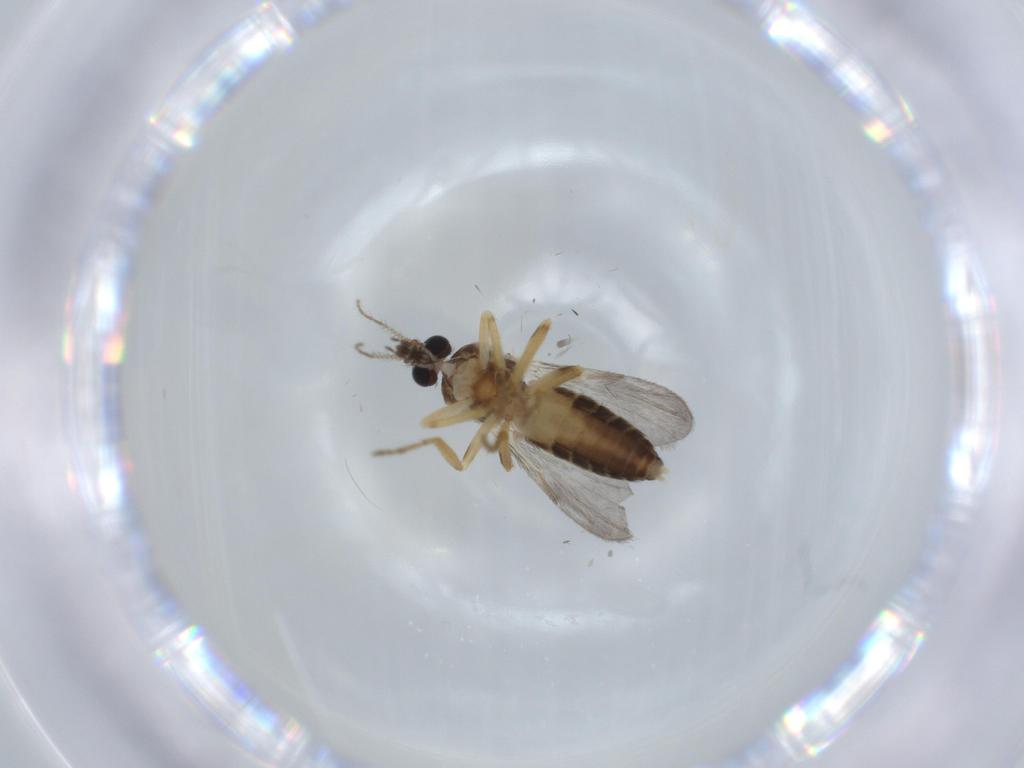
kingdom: Animalia
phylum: Arthropoda
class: Insecta
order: Diptera
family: Ceratopogonidae
